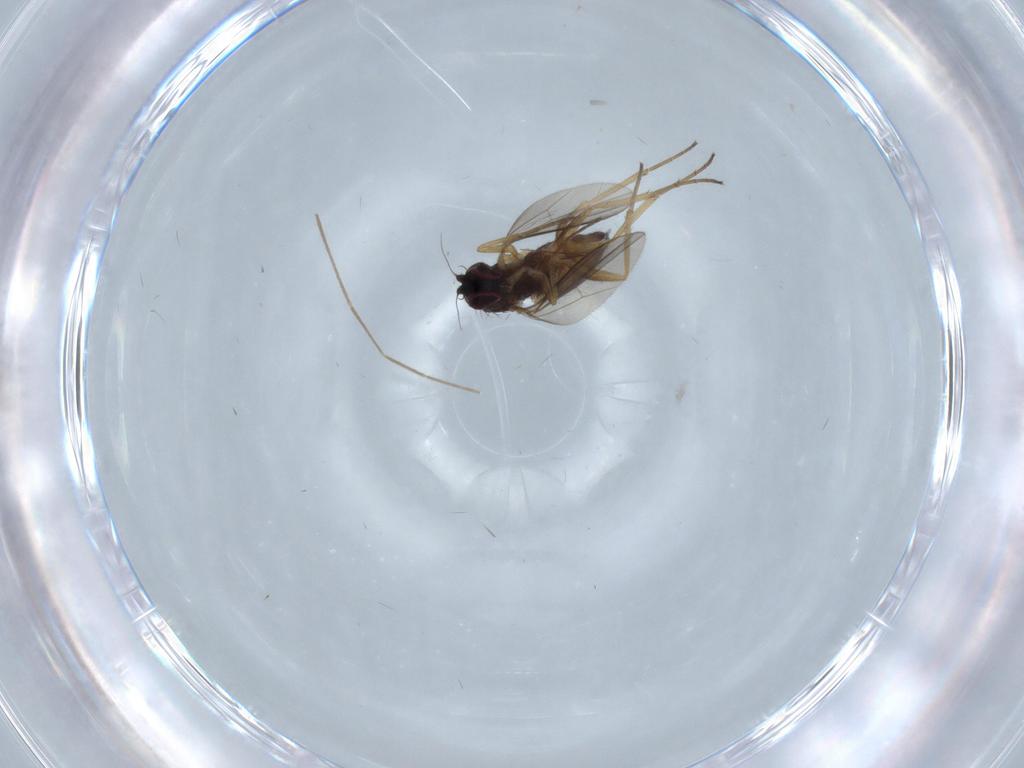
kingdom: Animalia
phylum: Arthropoda
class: Insecta
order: Diptera
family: Dolichopodidae
